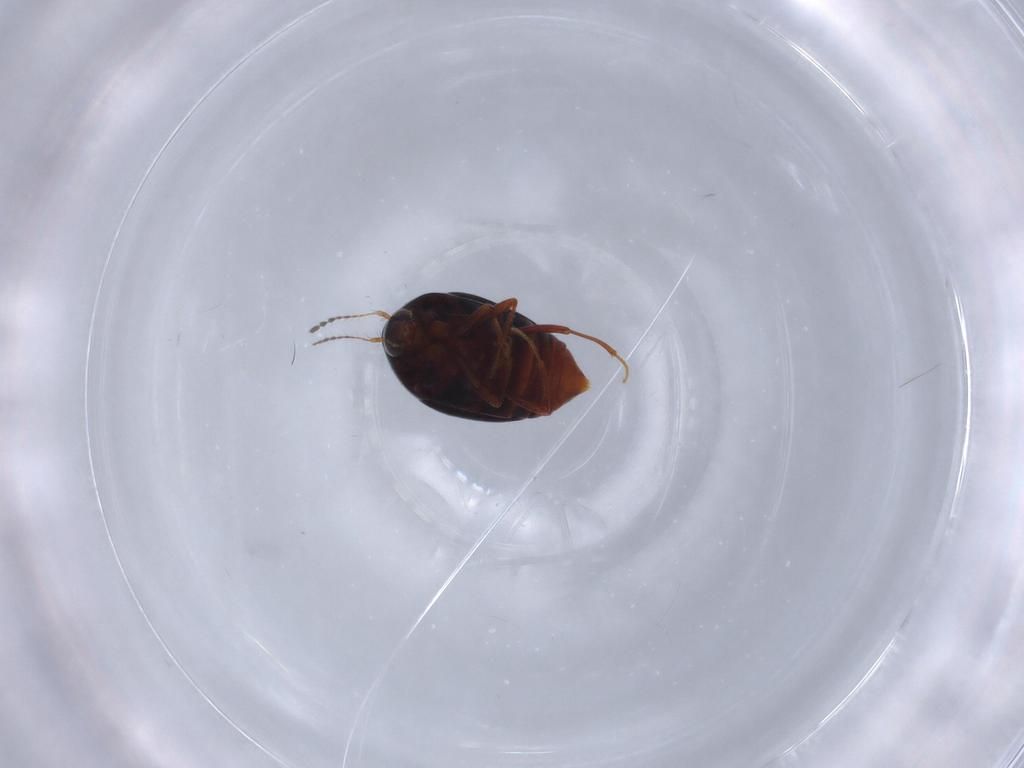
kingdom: Animalia
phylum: Arthropoda
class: Insecta
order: Coleoptera
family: Staphylinidae
